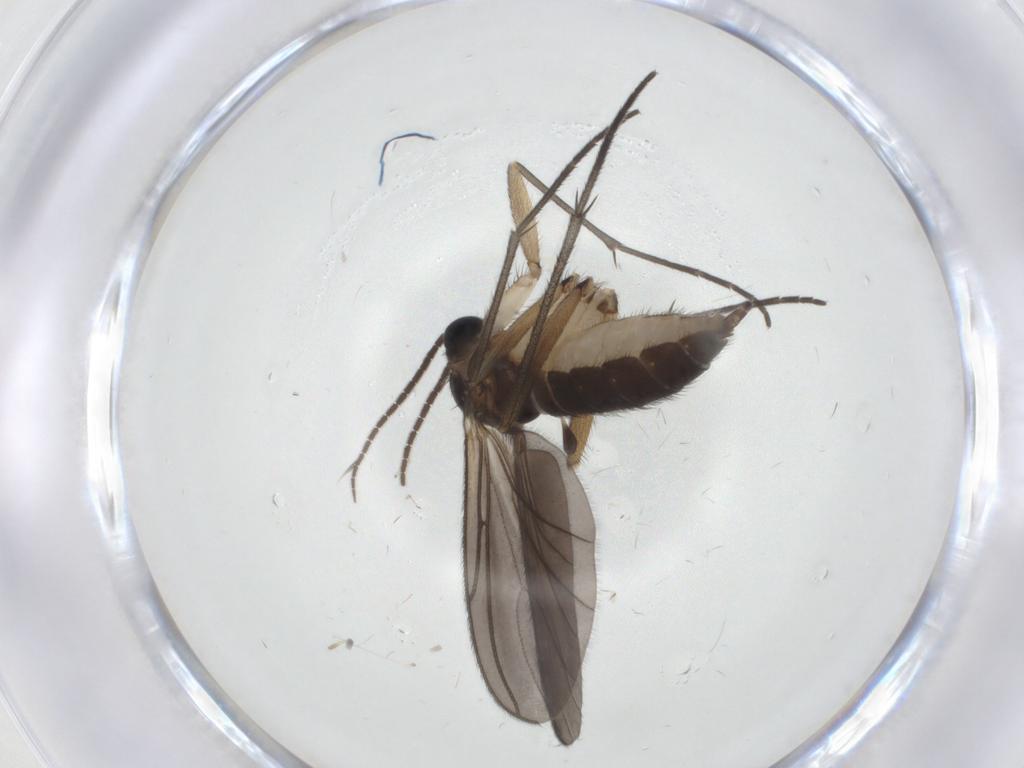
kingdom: Animalia
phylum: Arthropoda
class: Insecta
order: Diptera
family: Sciaridae
